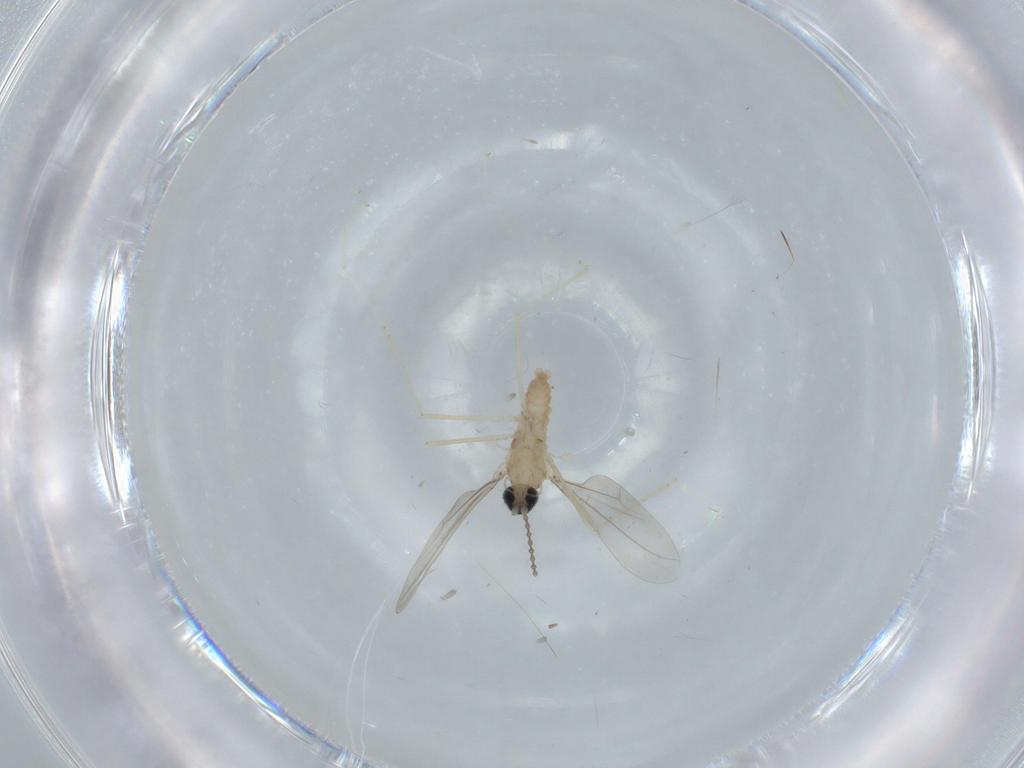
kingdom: Animalia
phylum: Arthropoda
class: Insecta
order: Diptera
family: Cecidomyiidae
